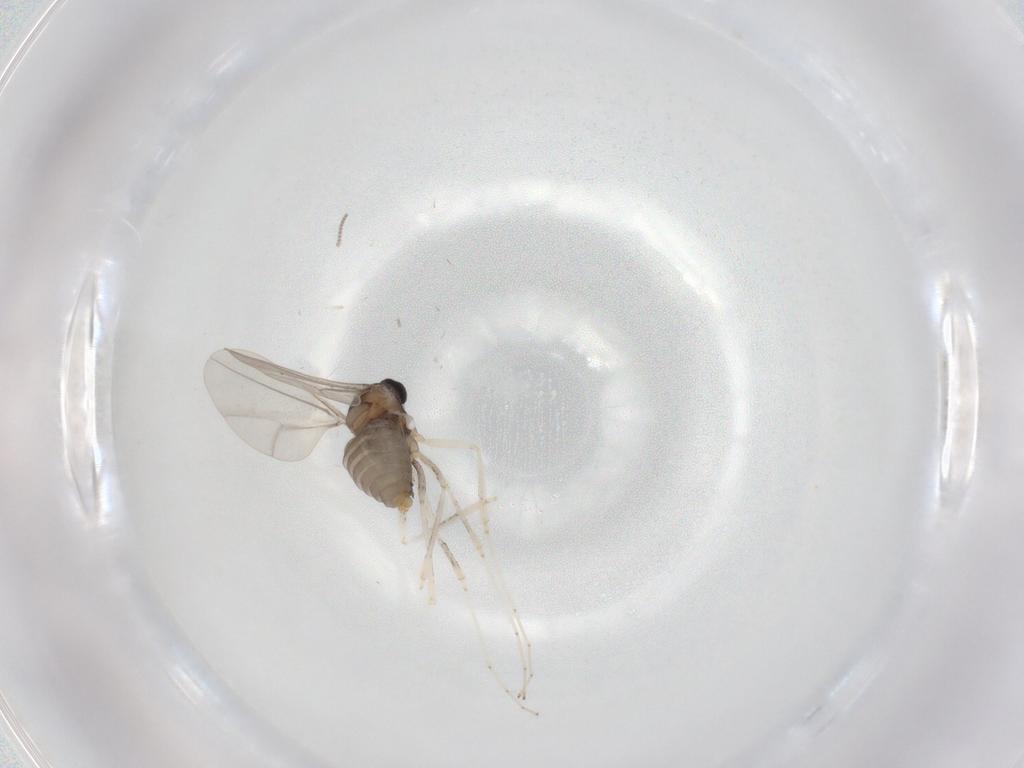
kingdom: Animalia
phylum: Arthropoda
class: Insecta
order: Diptera
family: Cecidomyiidae
